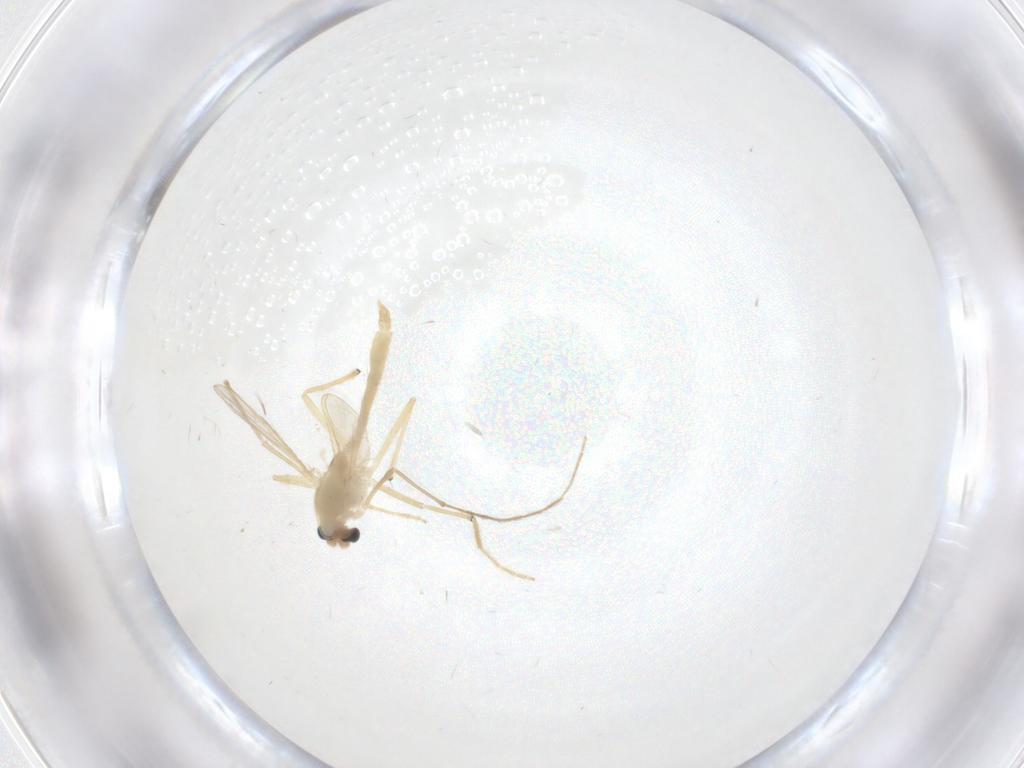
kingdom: Animalia
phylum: Arthropoda
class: Insecta
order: Diptera
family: Chironomidae
